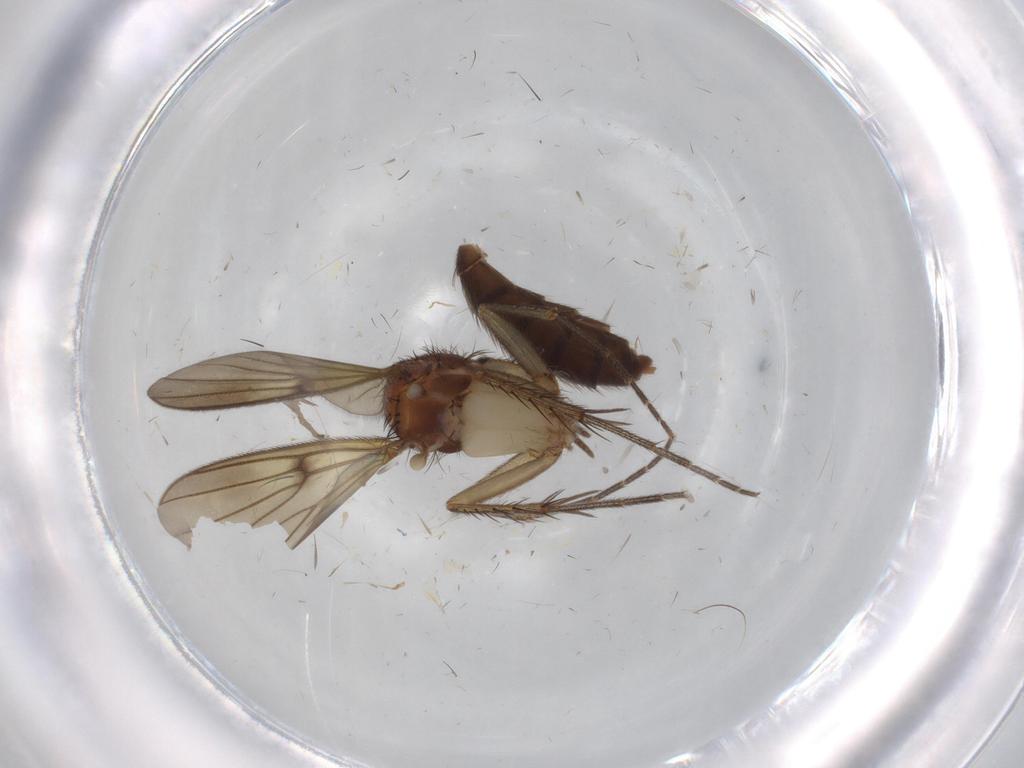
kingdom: Animalia
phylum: Arthropoda
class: Insecta
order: Diptera
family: Mycetophilidae
